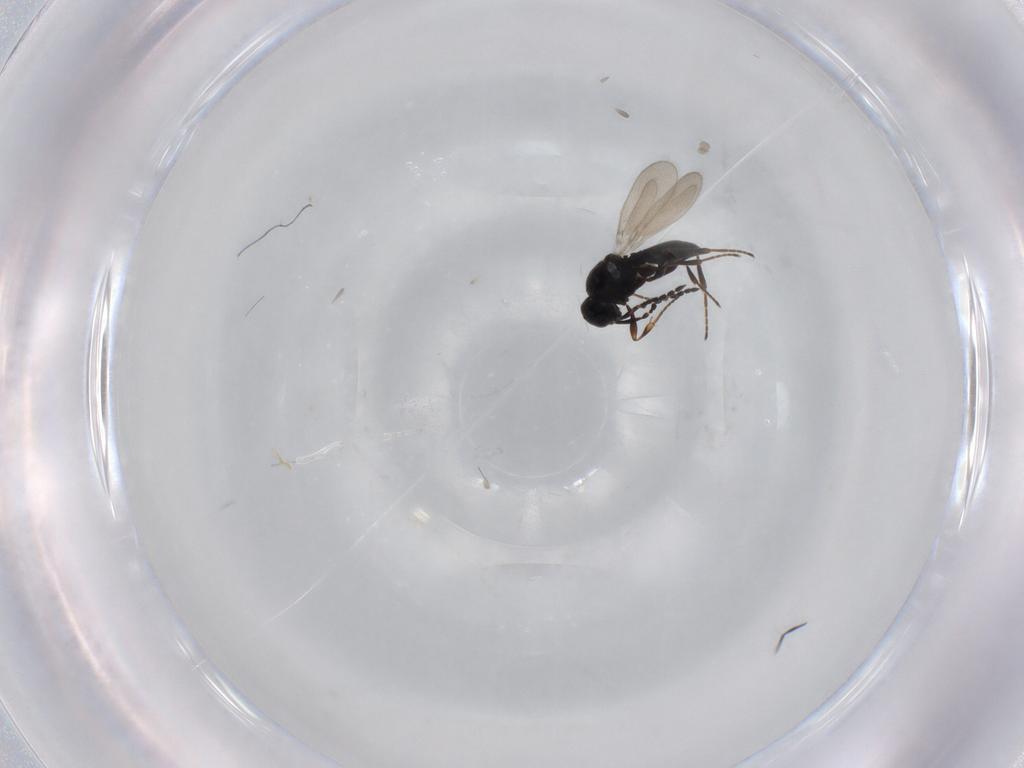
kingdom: Animalia
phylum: Arthropoda
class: Insecta
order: Hymenoptera
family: Platygastridae
